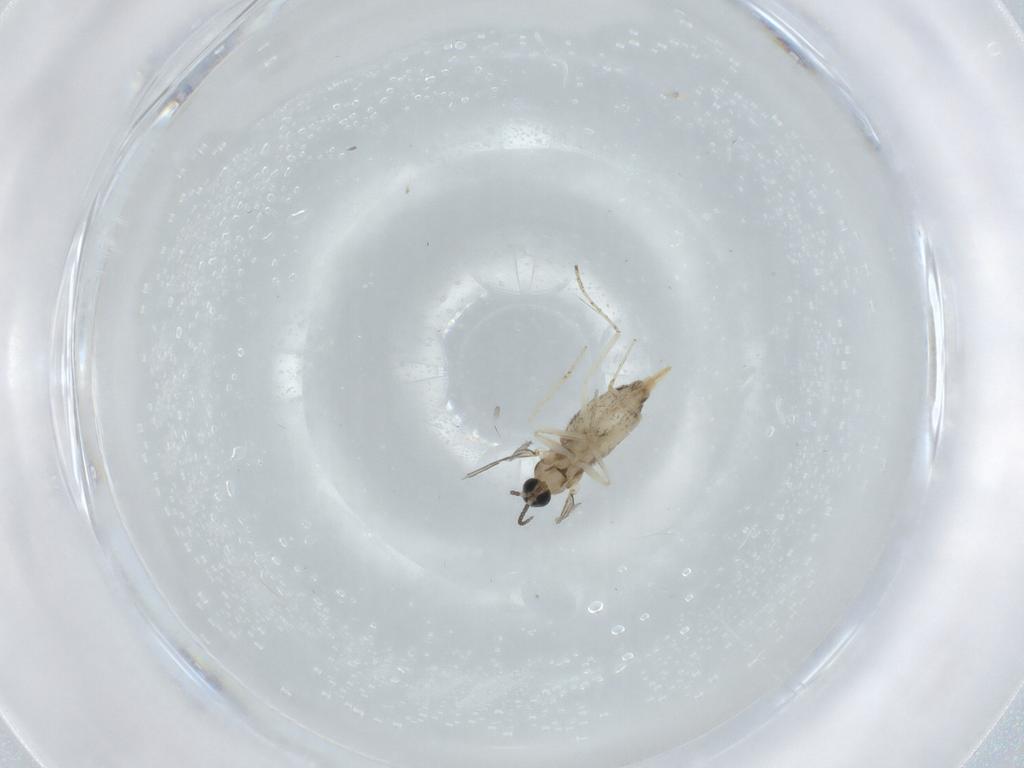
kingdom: Animalia
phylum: Arthropoda
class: Insecta
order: Diptera
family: Cecidomyiidae
